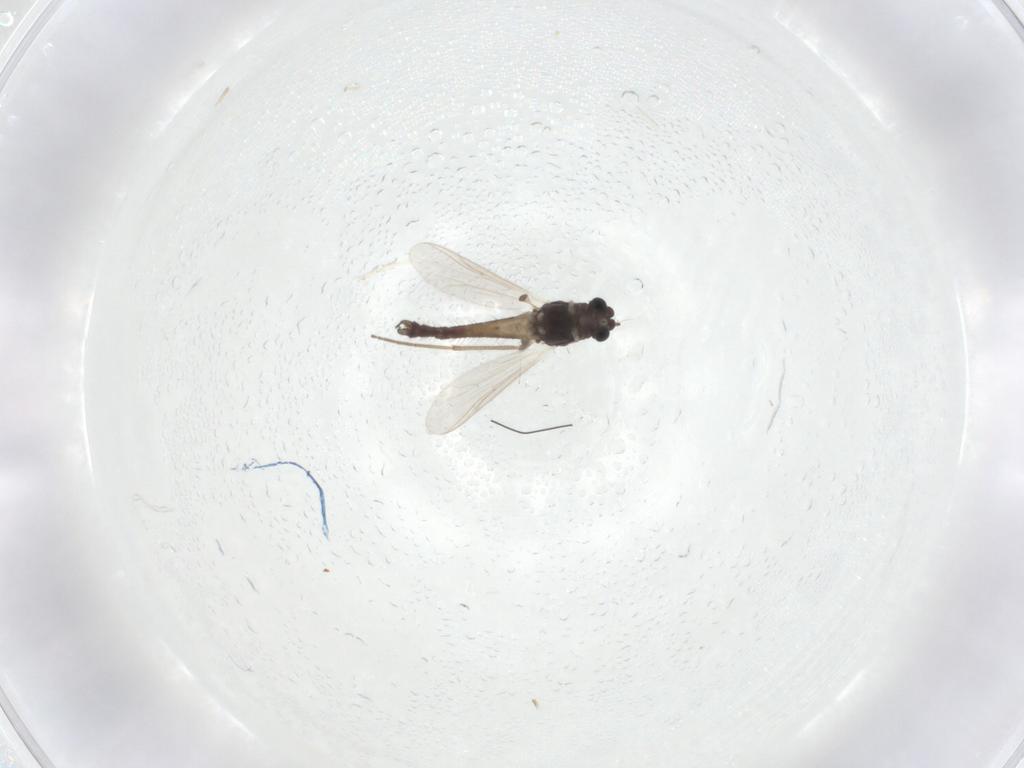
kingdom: Animalia
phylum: Arthropoda
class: Insecta
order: Diptera
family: Chironomidae
